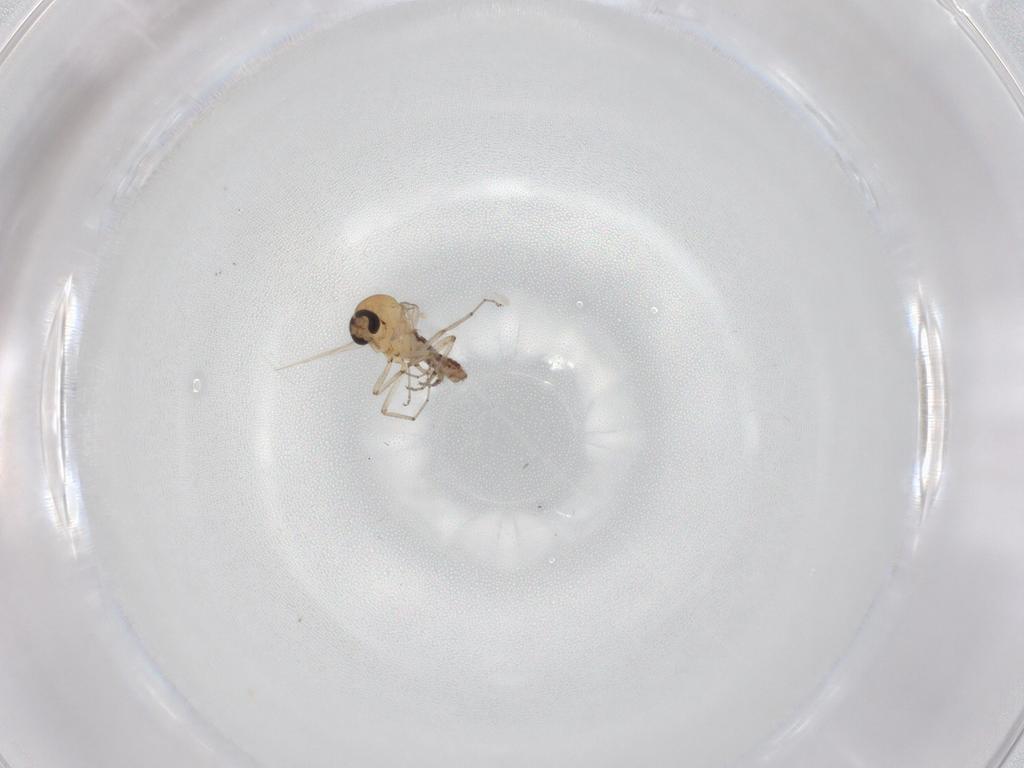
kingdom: Animalia
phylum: Arthropoda
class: Insecta
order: Diptera
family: Ceratopogonidae
